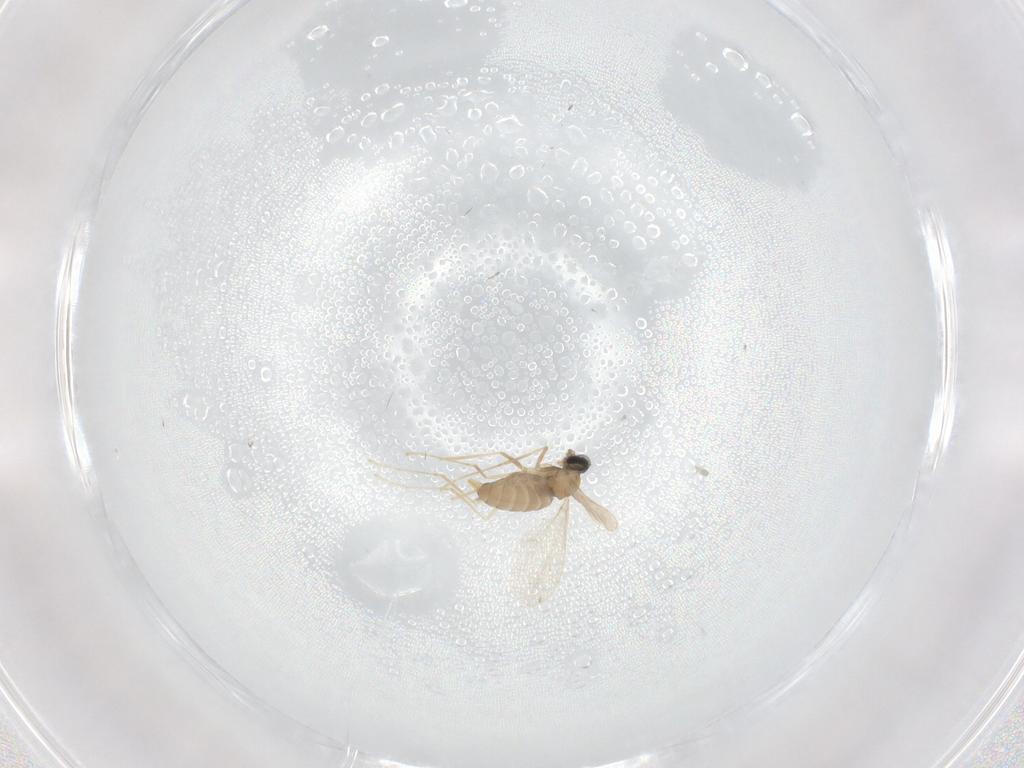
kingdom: Animalia
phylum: Arthropoda
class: Insecta
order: Diptera
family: Cecidomyiidae
